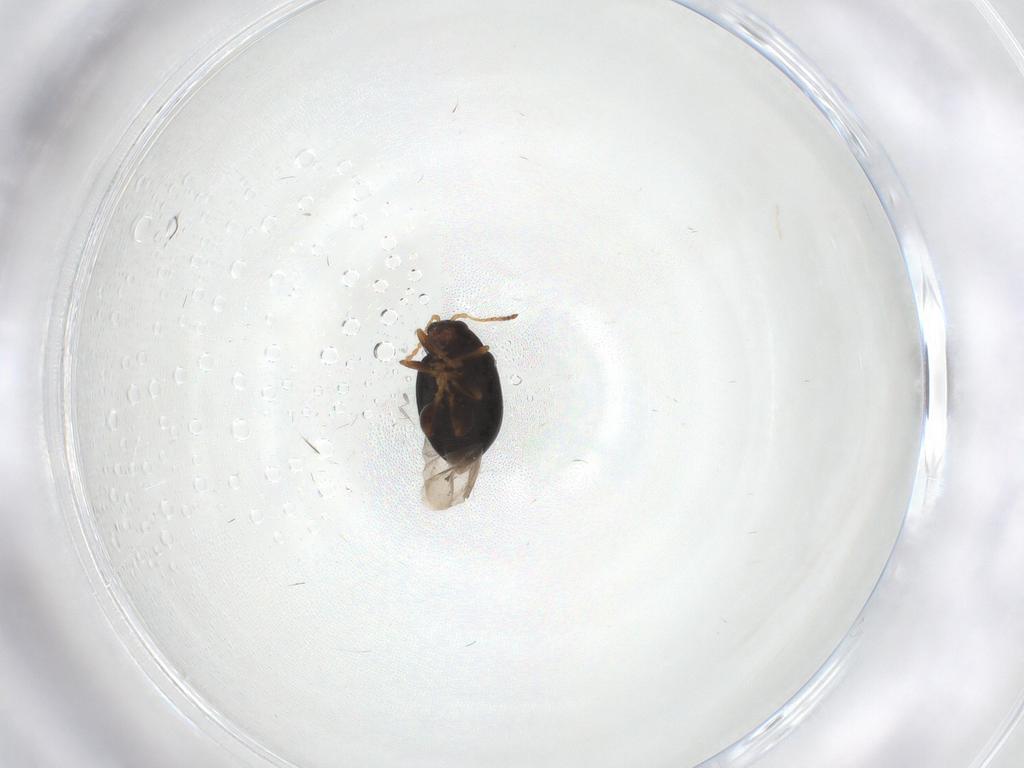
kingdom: Animalia
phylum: Arthropoda
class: Insecta
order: Coleoptera
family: Chrysomelidae
